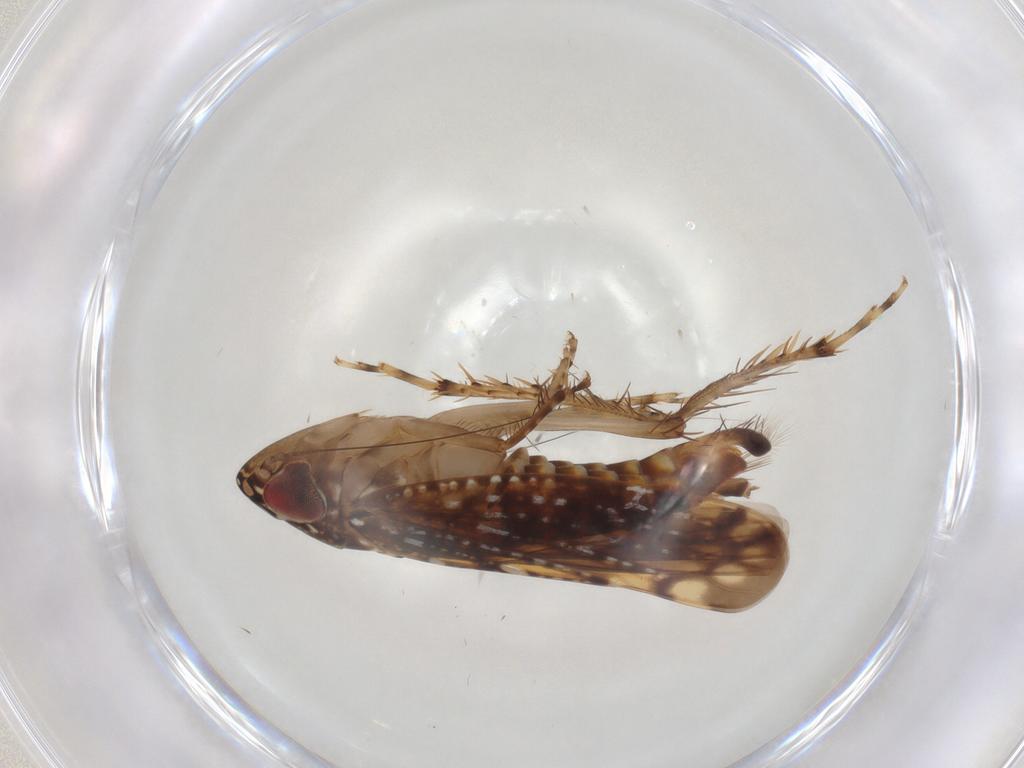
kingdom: Animalia
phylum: Arthropoda
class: Insecta
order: Hemiptera
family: Cicadellidae
